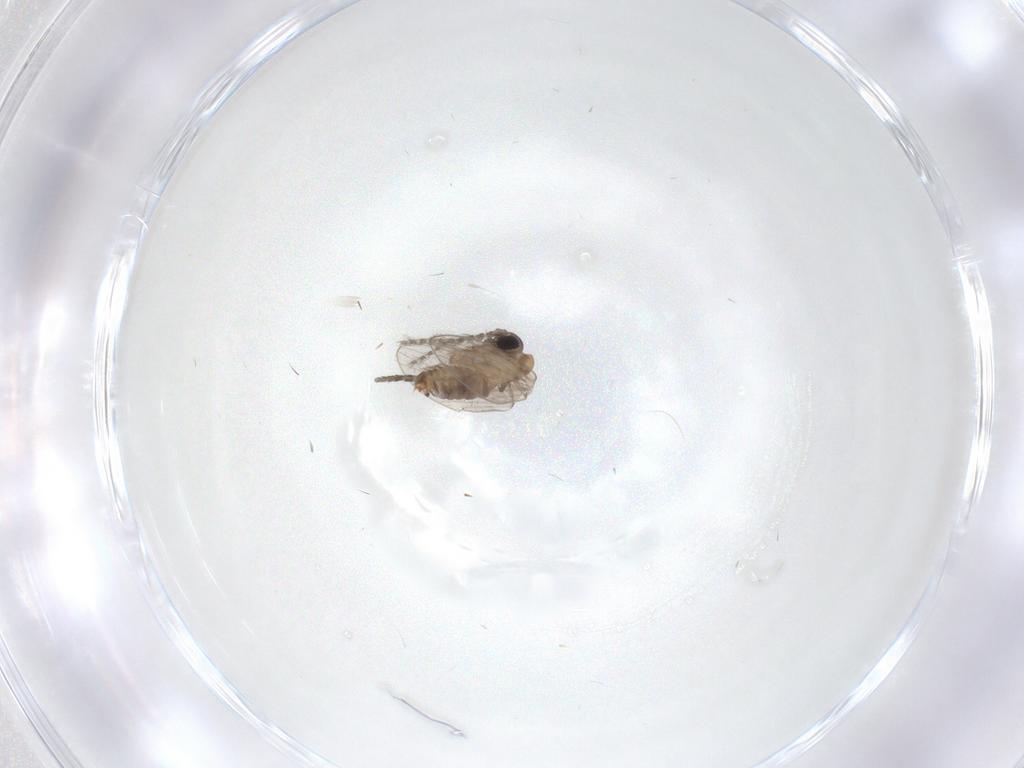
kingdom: Animalia
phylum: Arthropoda
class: Insecta
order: Diptera
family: Psychodidae
